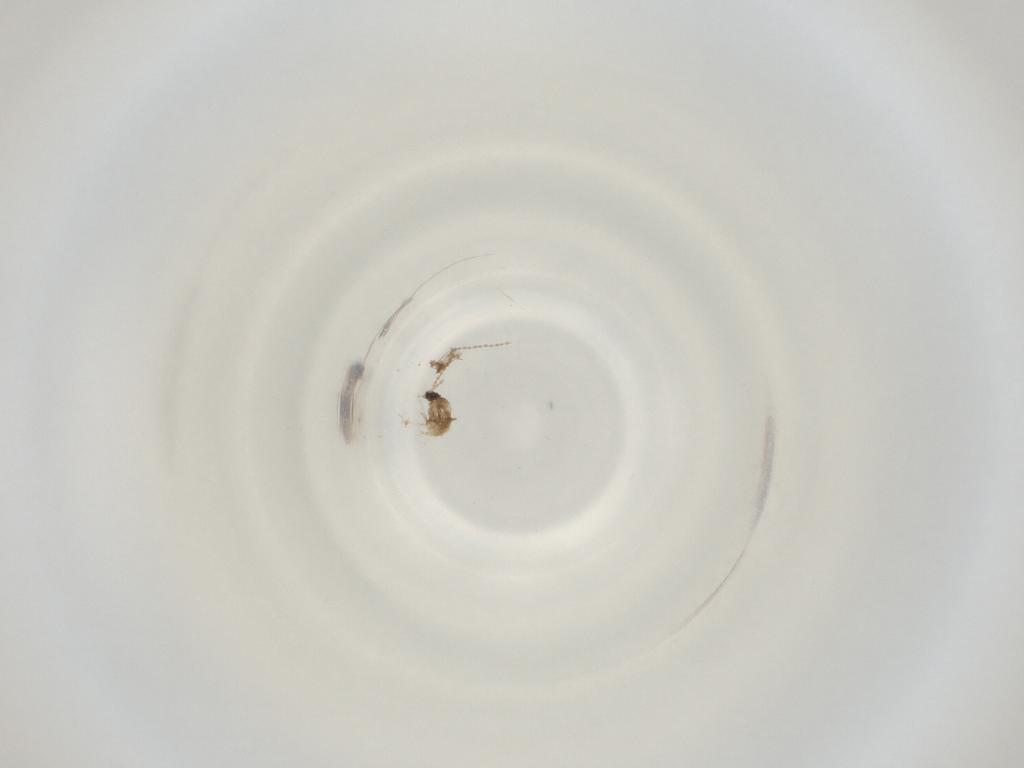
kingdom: Animalia
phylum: Arthropoda
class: Insecta
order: Diptera
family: Cecidomyiidae
